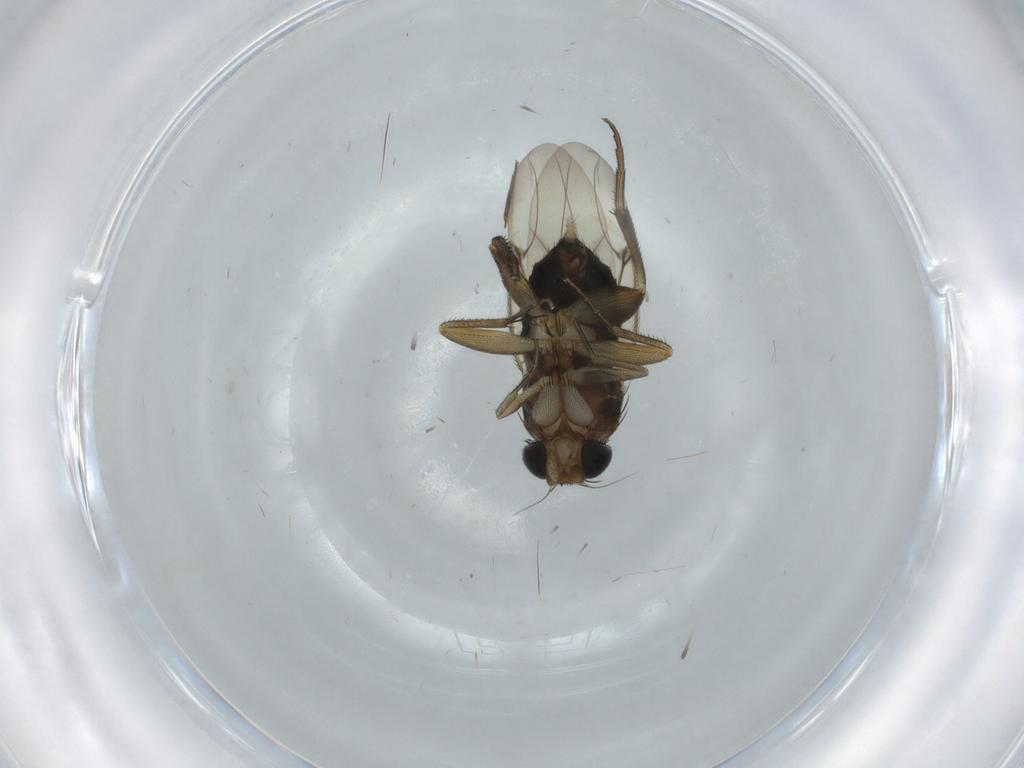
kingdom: Animalia
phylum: Arthropoda
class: Insecta
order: Diptera
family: Phoridae
